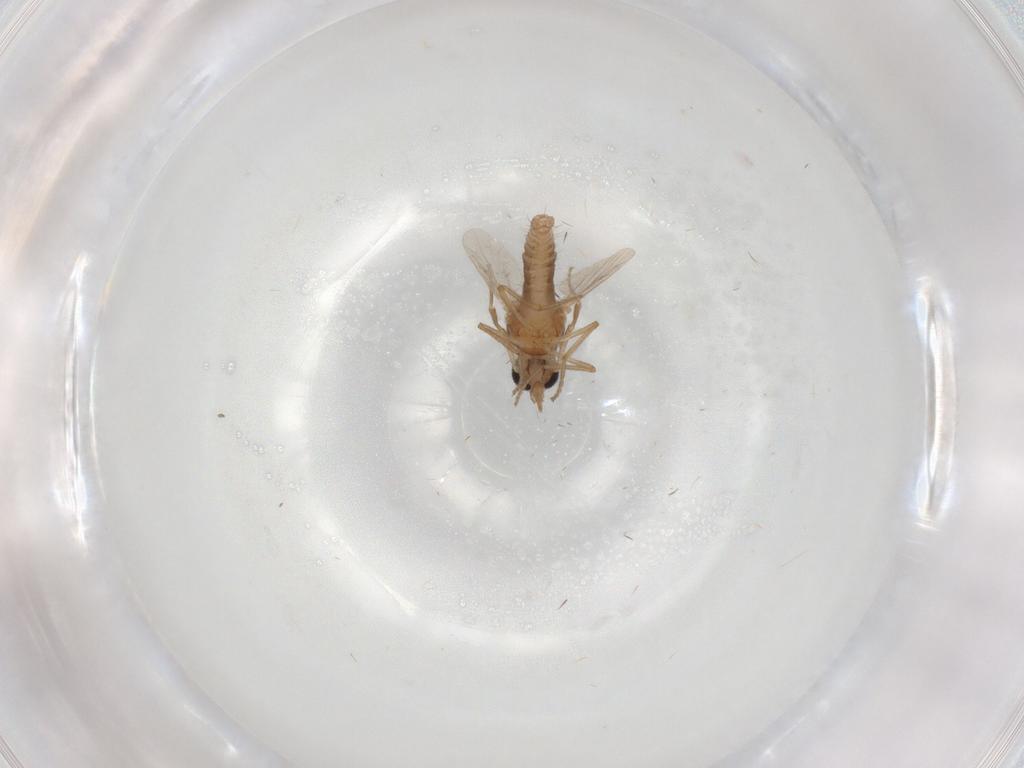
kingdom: Animalia
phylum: Arthropoda
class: Insecta
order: Diptera
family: Ceratopogonidae
